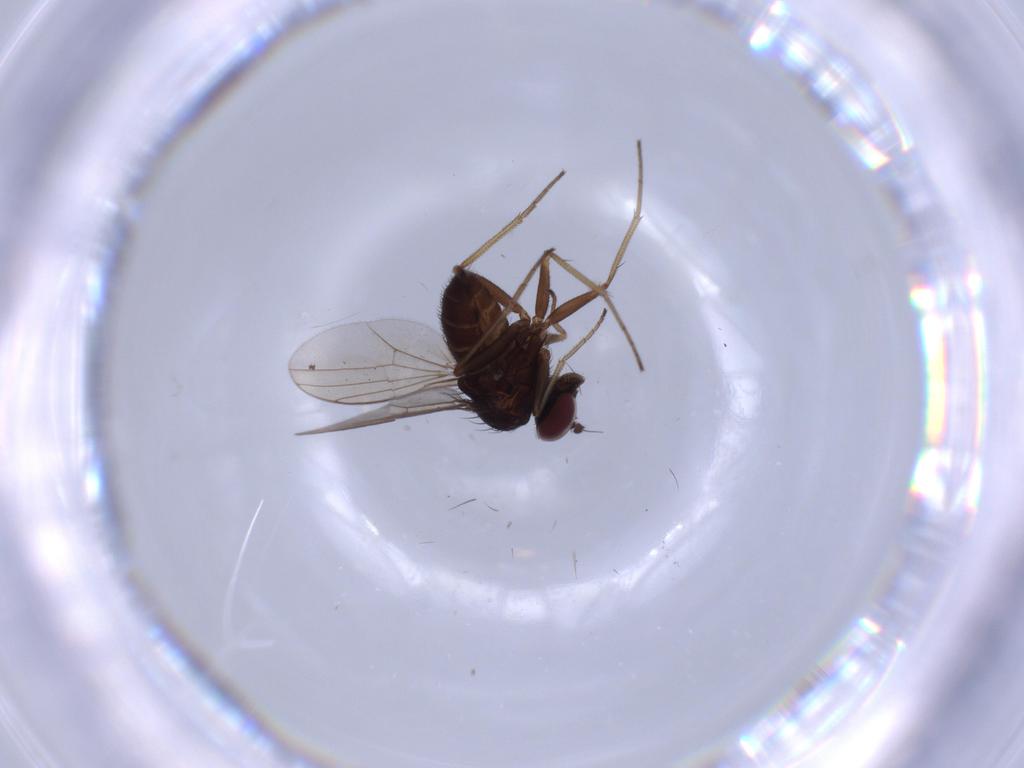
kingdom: Animalia
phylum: Arthropoda
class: Insecta
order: Diptera
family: Dolichopodidae
